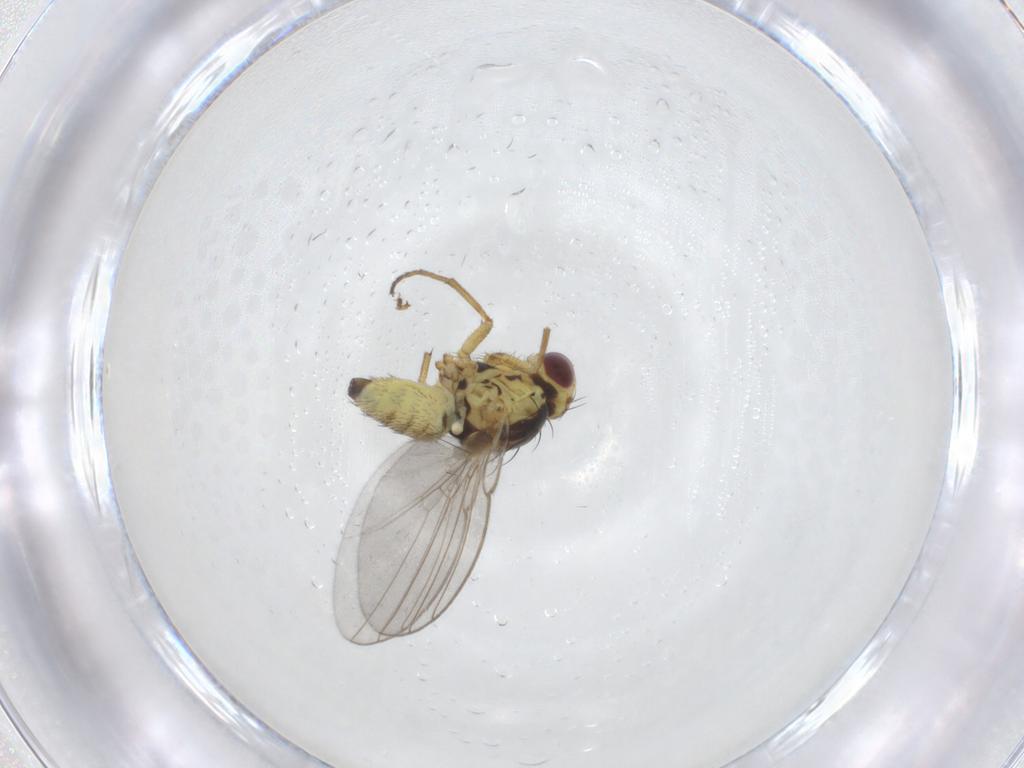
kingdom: Animalia
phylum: Arthropoda
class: Insecta
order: Diptera
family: Agromyzidae
